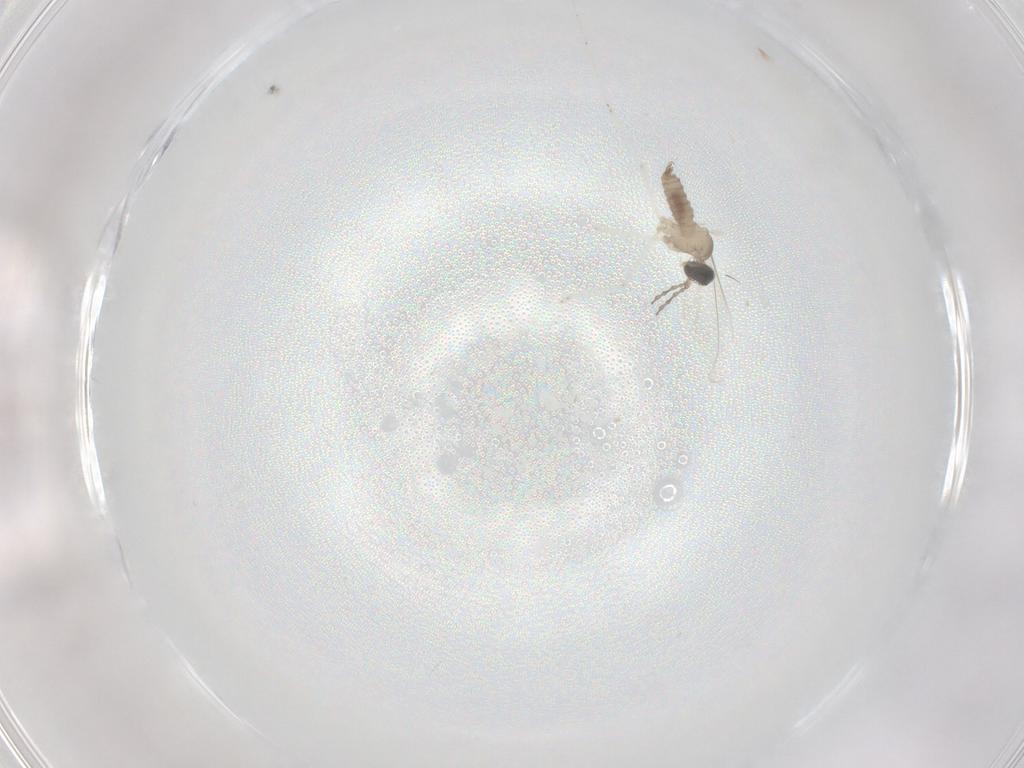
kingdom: Animalia
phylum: Arthropoda
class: Insecta
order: Diptera
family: Cecidomyiidae
